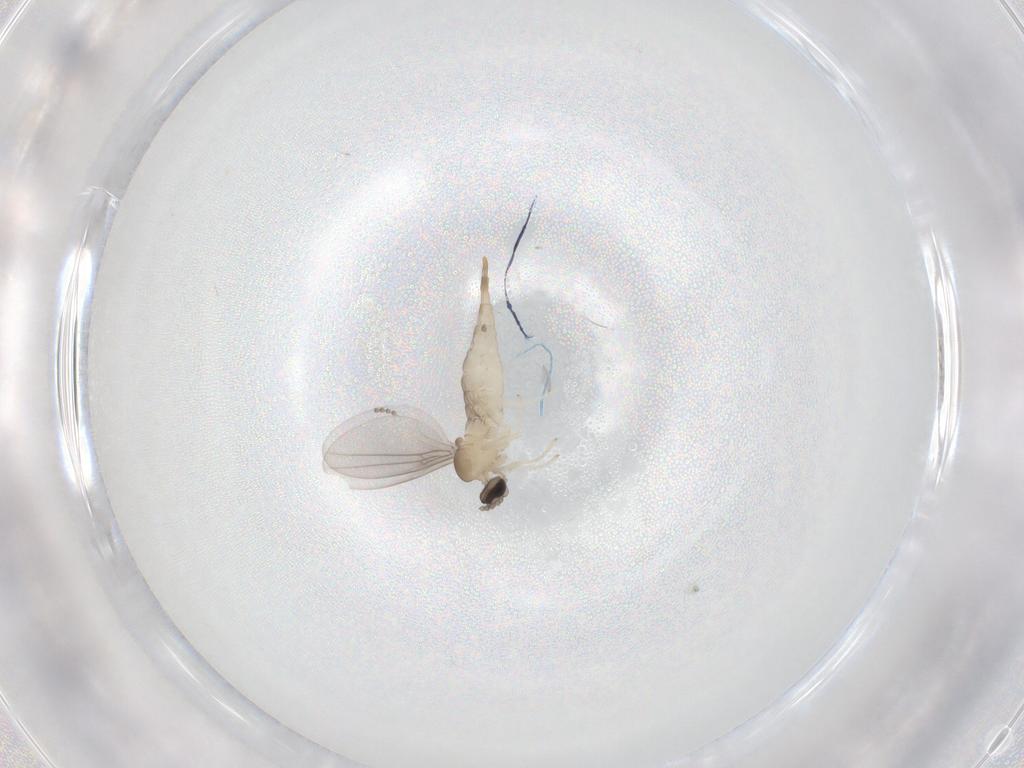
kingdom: Animalia
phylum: Arthropoda
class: Insecta
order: Diptera
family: Cecidomyiidae
